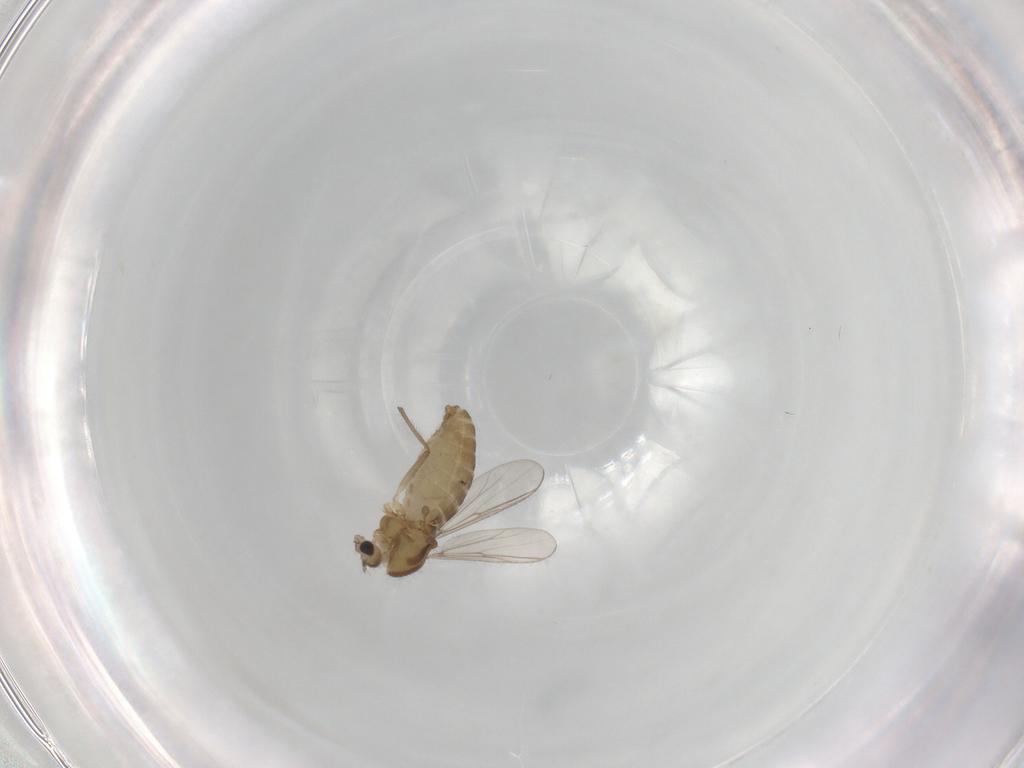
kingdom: Animalia
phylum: Arthropoda
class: Insecta
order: Diptera
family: Chironomidae
